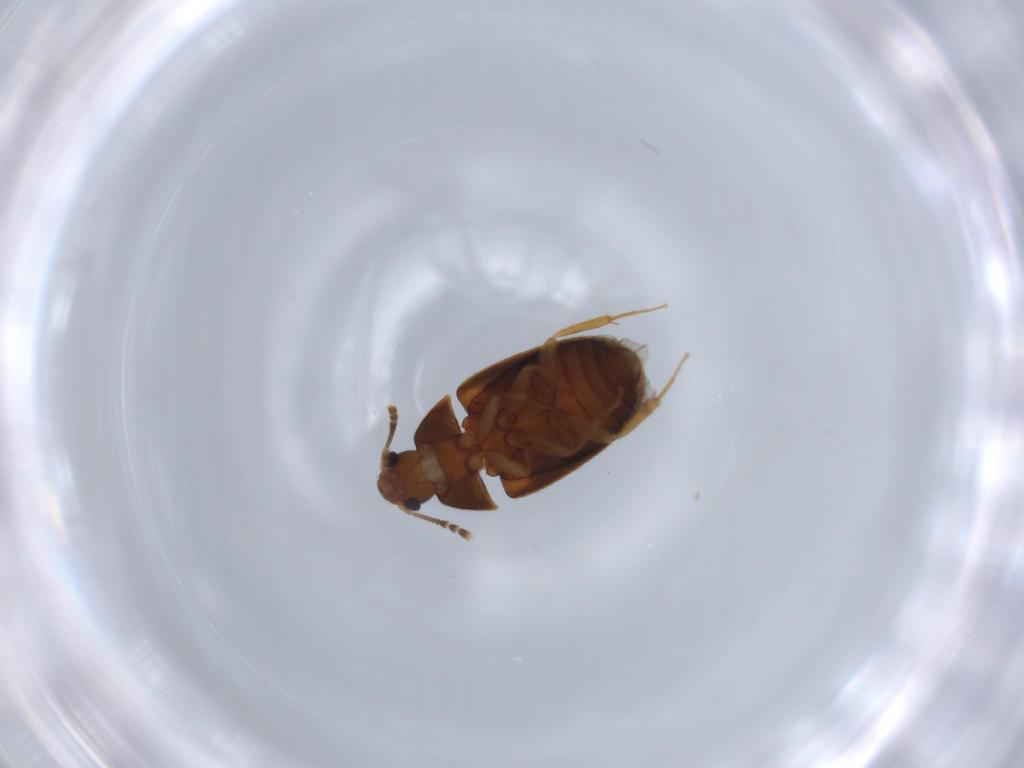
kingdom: Animalia
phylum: Arthropoda
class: Insecta
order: Coleoptera
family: Mycetophagidae
